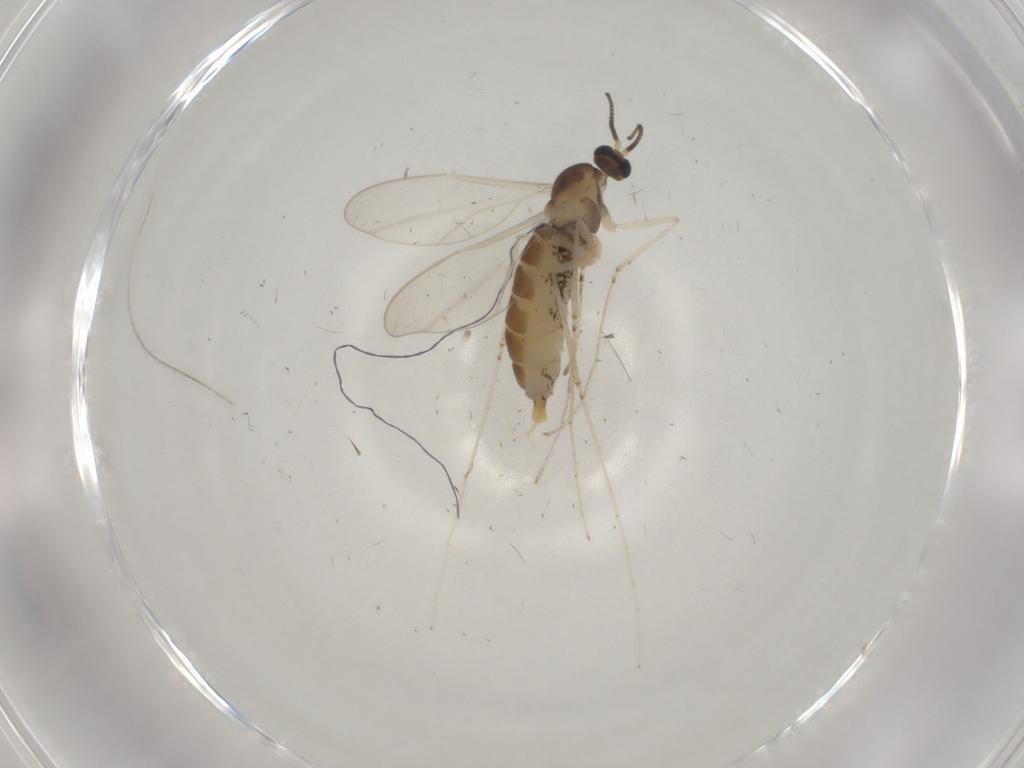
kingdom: Animalia
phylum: Arthropoda
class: Insecta
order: Diptera
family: Cecidomyiidae
